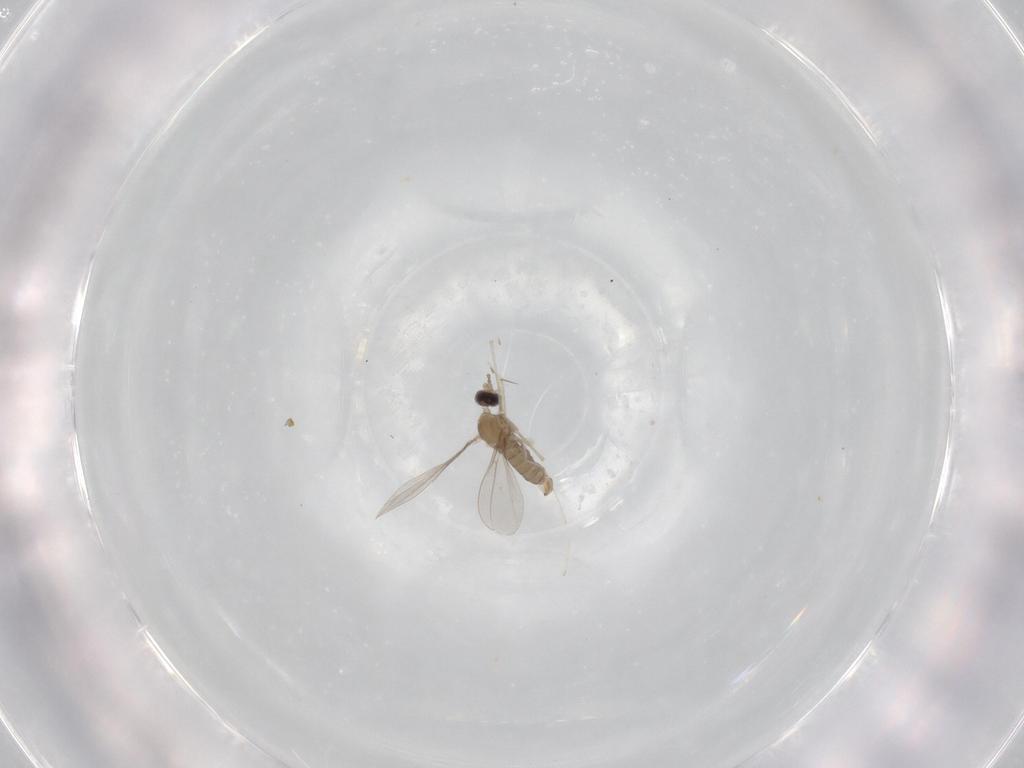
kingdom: Animalia
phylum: Arthropoda
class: Insecta
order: Diptera
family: Cecidomyiidae
